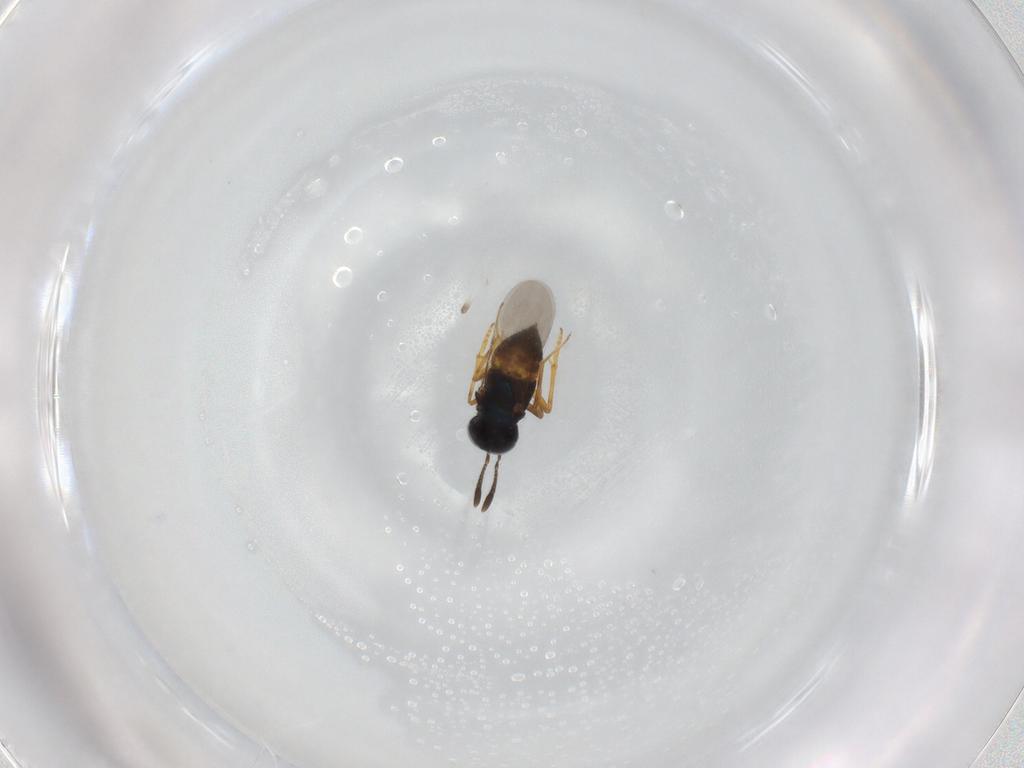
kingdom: Animalia
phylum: Arthropoda
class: Insecta
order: Hymenoptera
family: Encyrtidae
